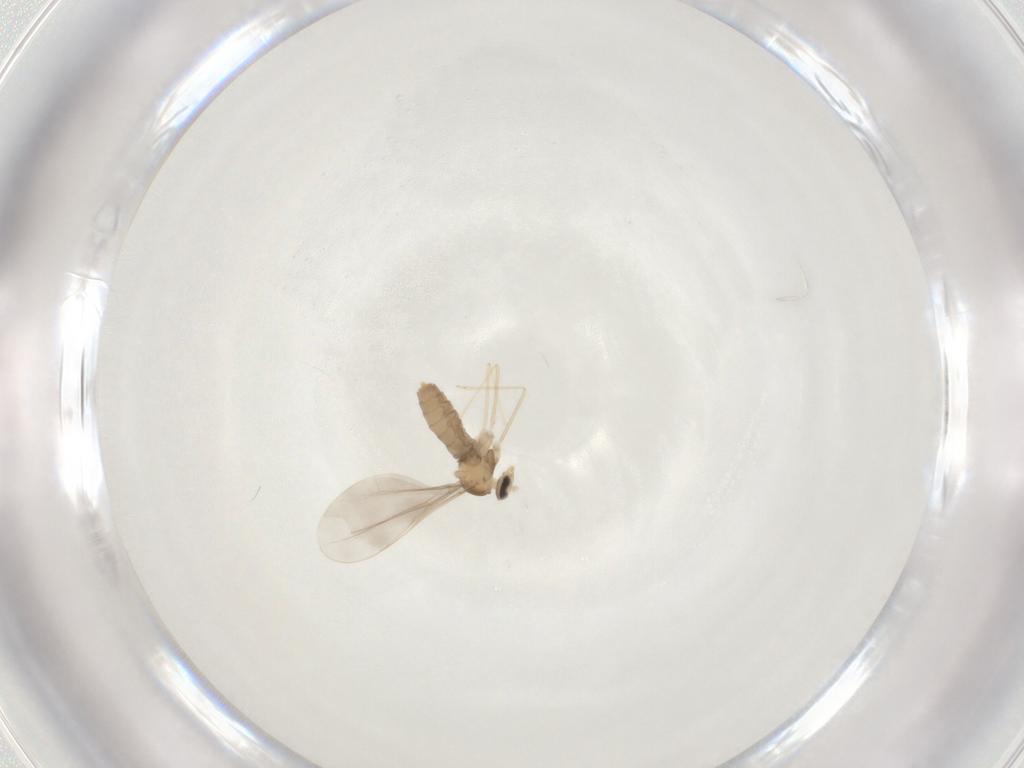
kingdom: Animalia
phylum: Arthropoda
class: Insecta
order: Diptera
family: Cecidomyiidae
